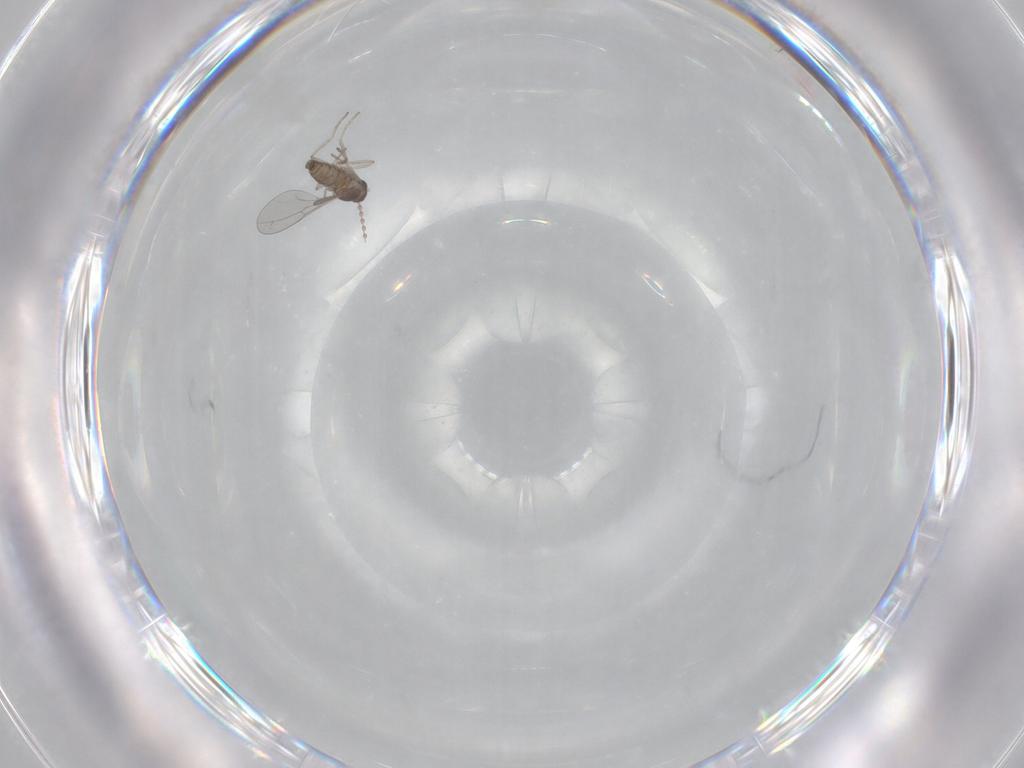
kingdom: Animalia
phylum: Arthropoda
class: Insecta
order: Diptera
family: Cecidomyiidae
